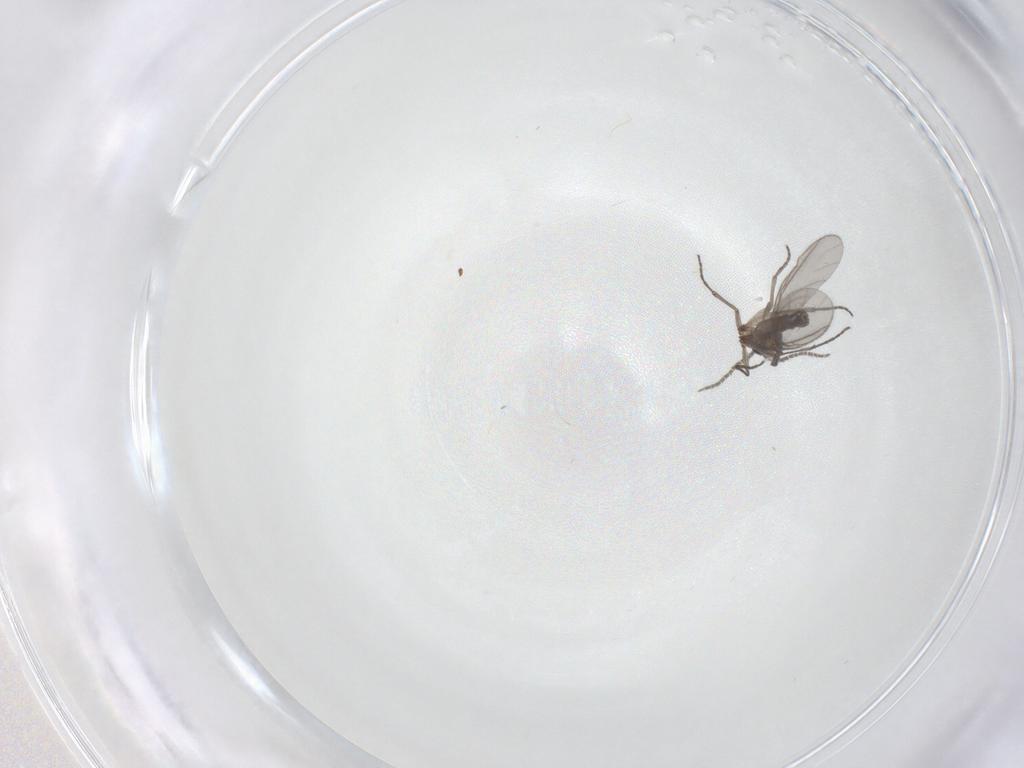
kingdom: Animalia
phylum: Arthropoda
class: Insecta
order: Diptera
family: Sciaridae
